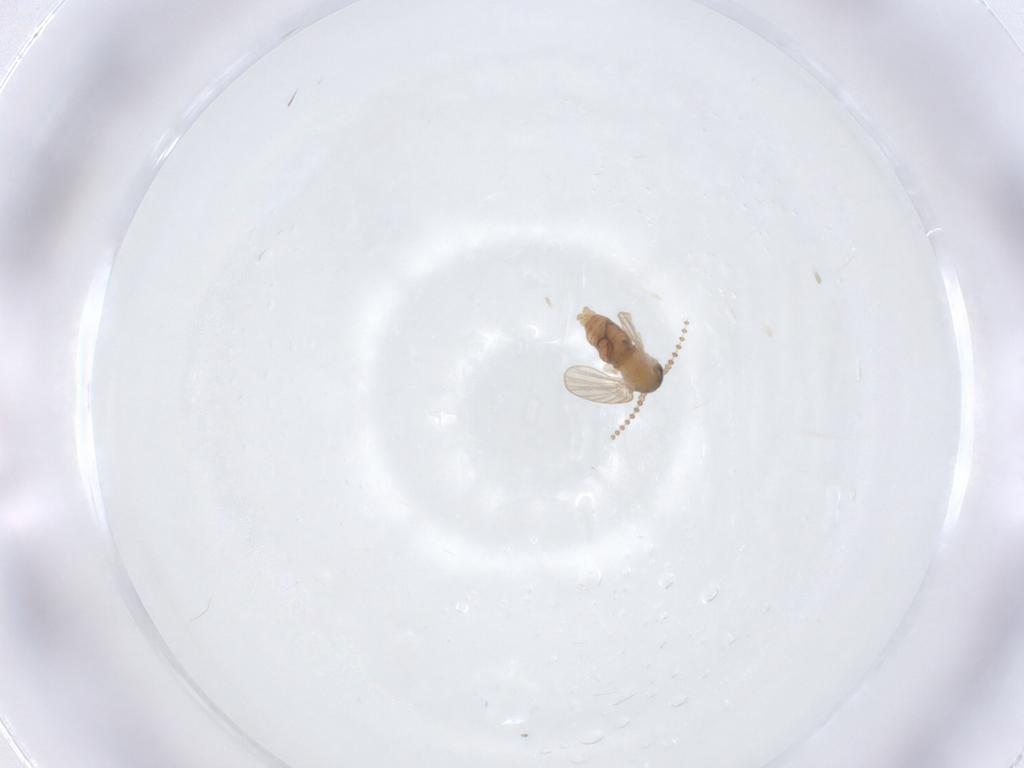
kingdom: Animalia
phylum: Arthropoda
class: Insecta
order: Diptera
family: Psychodidae
